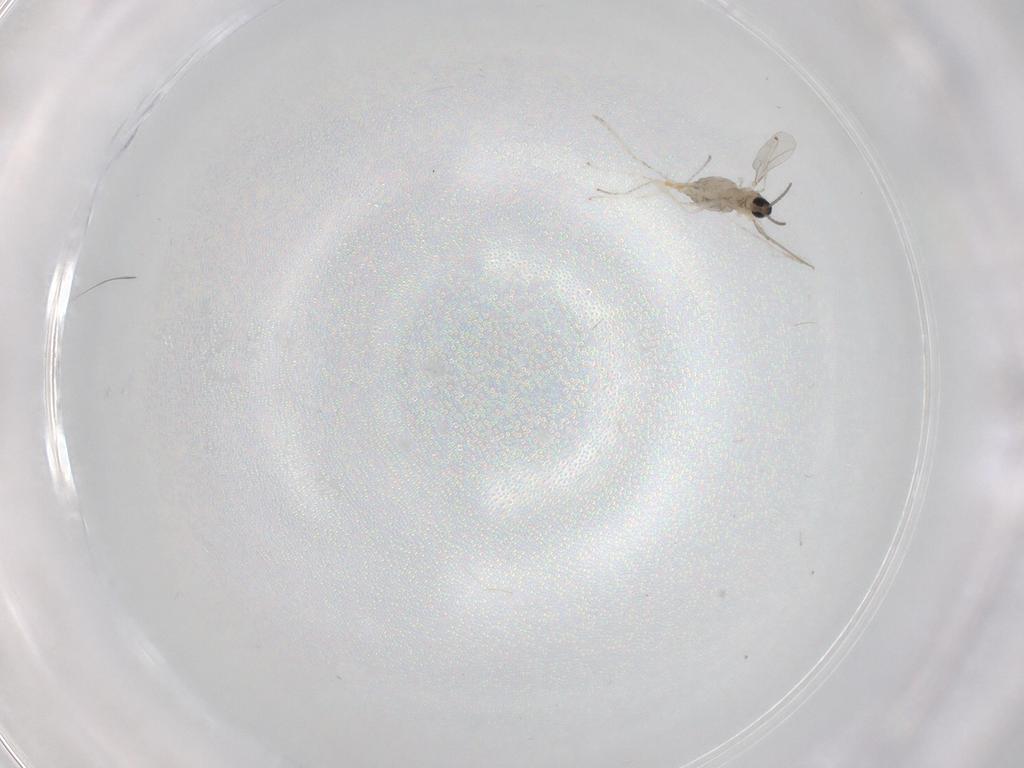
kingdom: Animalia
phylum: Arthropoda
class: Insecta
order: Diptera
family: Cecidomyiidae
